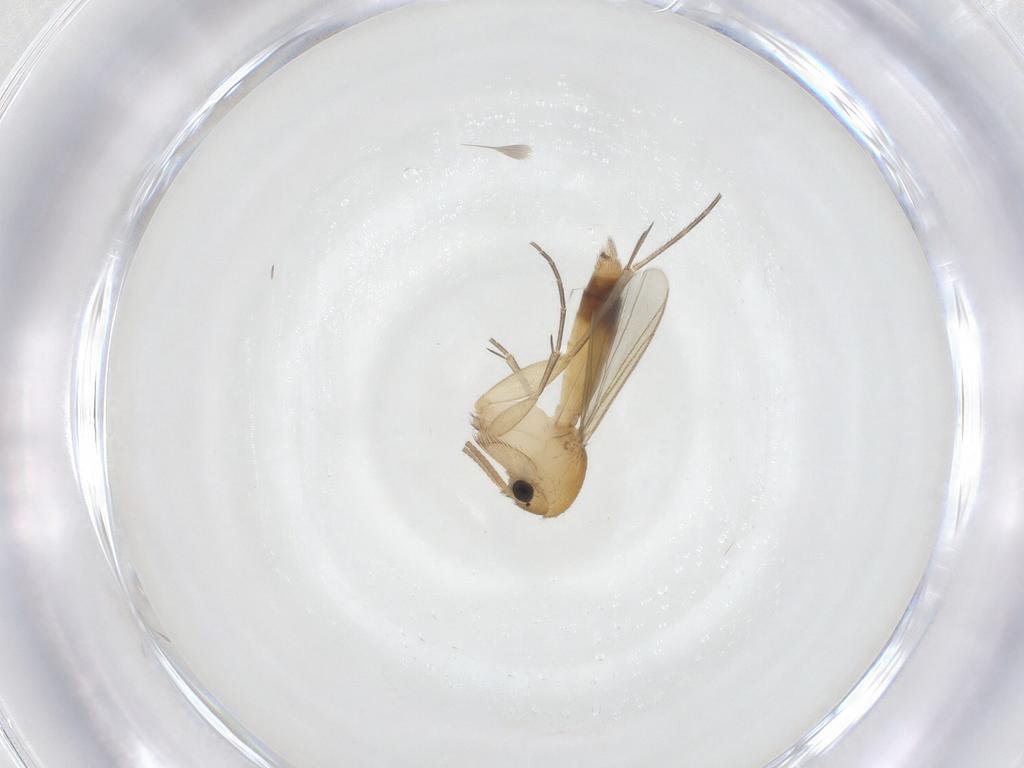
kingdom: Animalia
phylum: Arthropoda
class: Insecta
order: Diptera
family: Mycetophilidae
